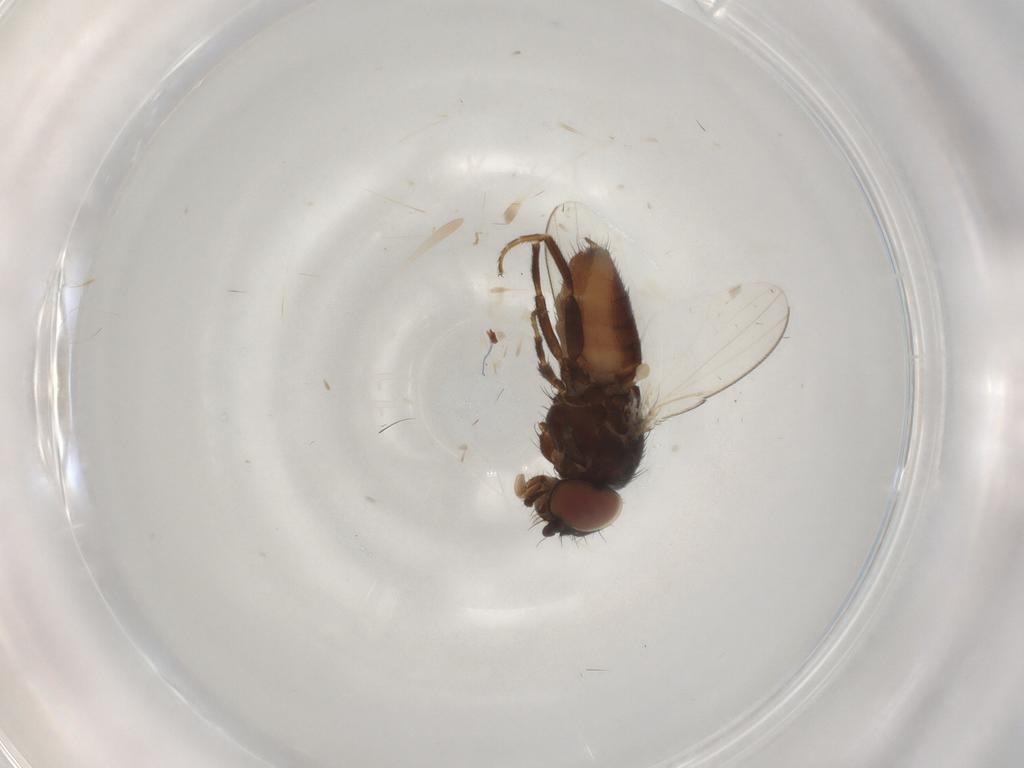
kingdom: Animalia
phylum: Arthropoda
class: Insecta
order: Diptera
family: Milichiidae
